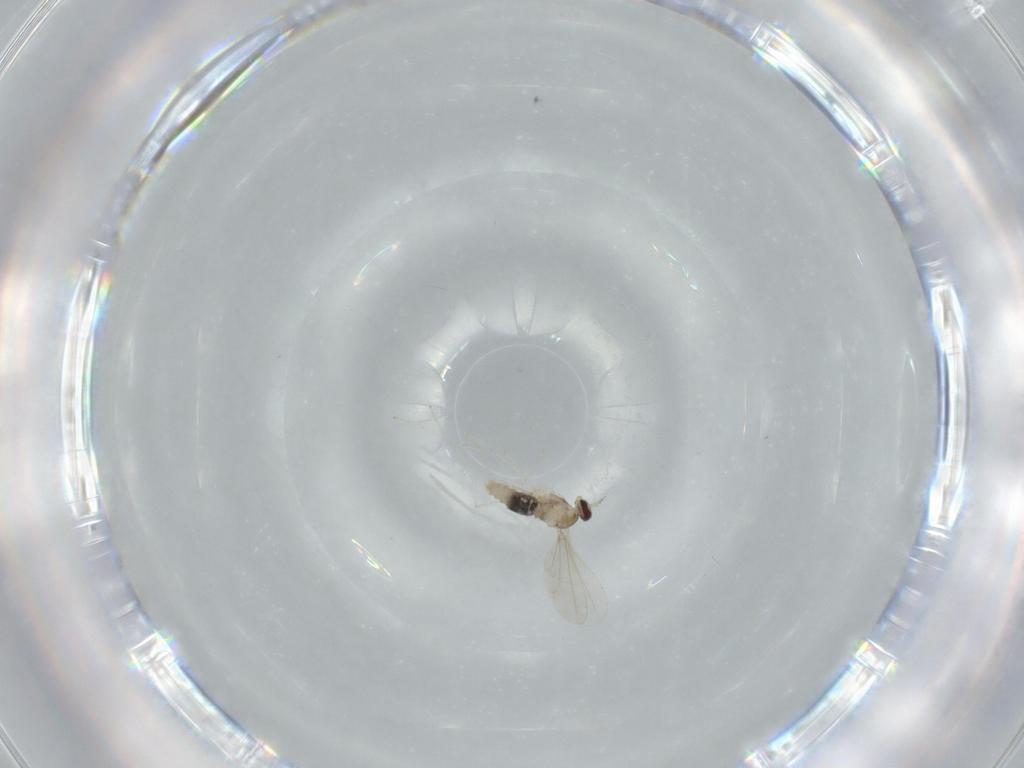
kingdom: Animalia
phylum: Arthropoda
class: Insecta
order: Diptera
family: Cecidomyiidae
